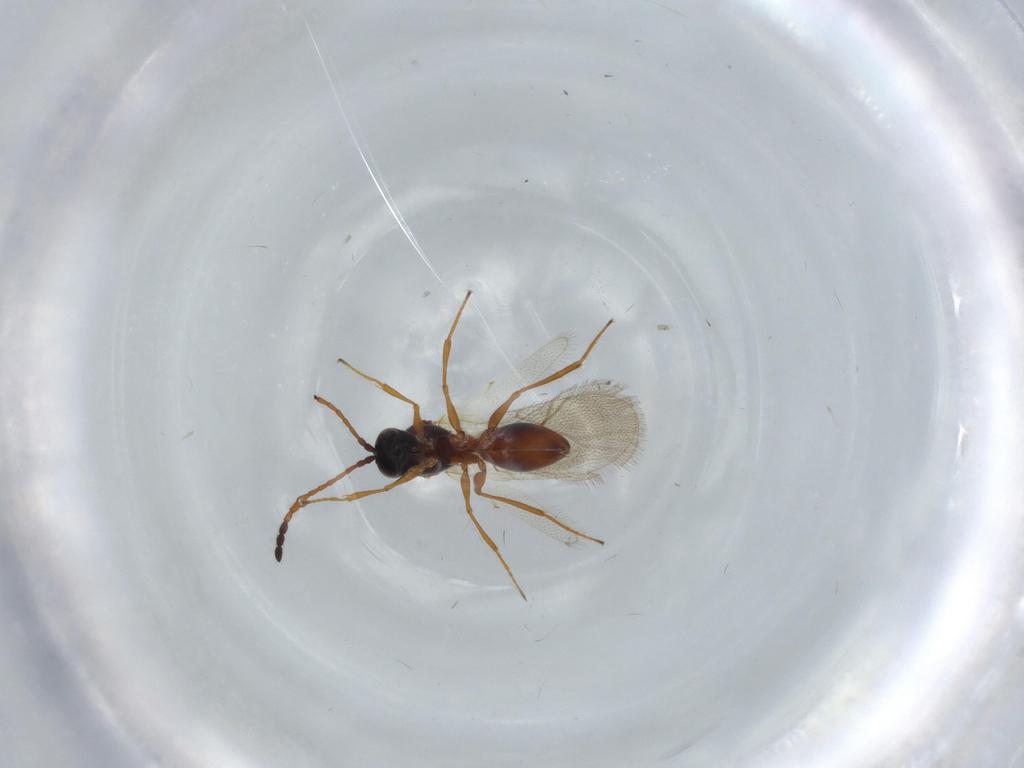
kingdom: Animalia
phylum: Arthropoda
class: Insecta
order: Hymenoptera
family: Figitidae
